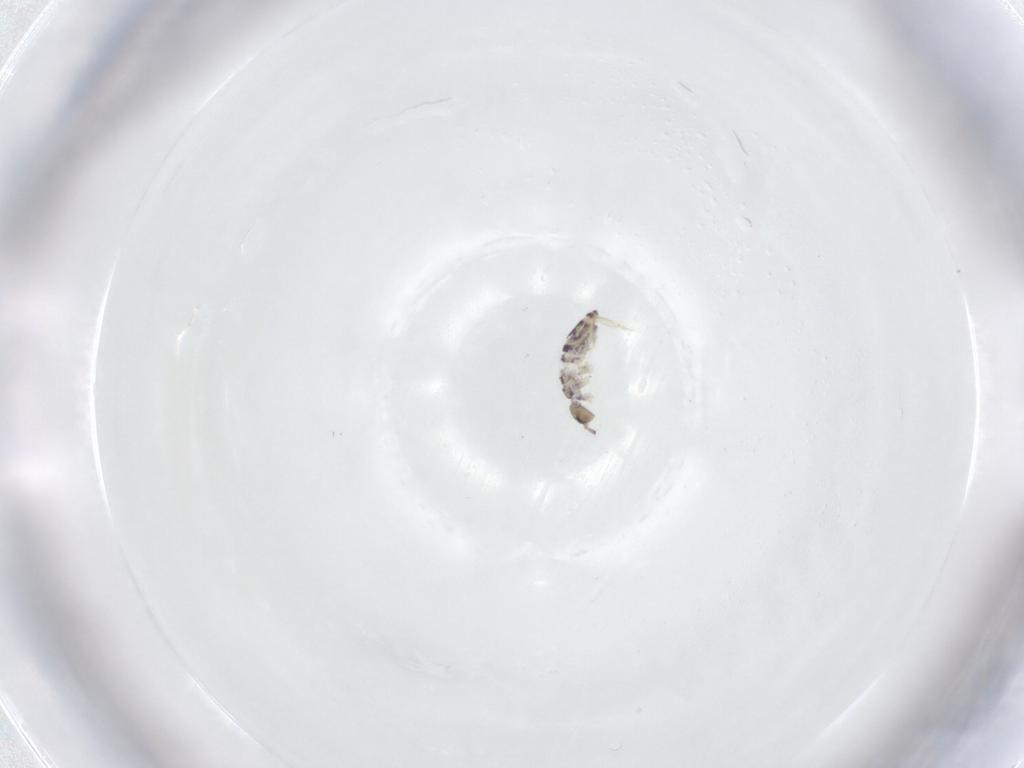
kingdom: Animalia
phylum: Arthropoda
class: Collembola
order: Entomobryomorpha
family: Entomobryidae
